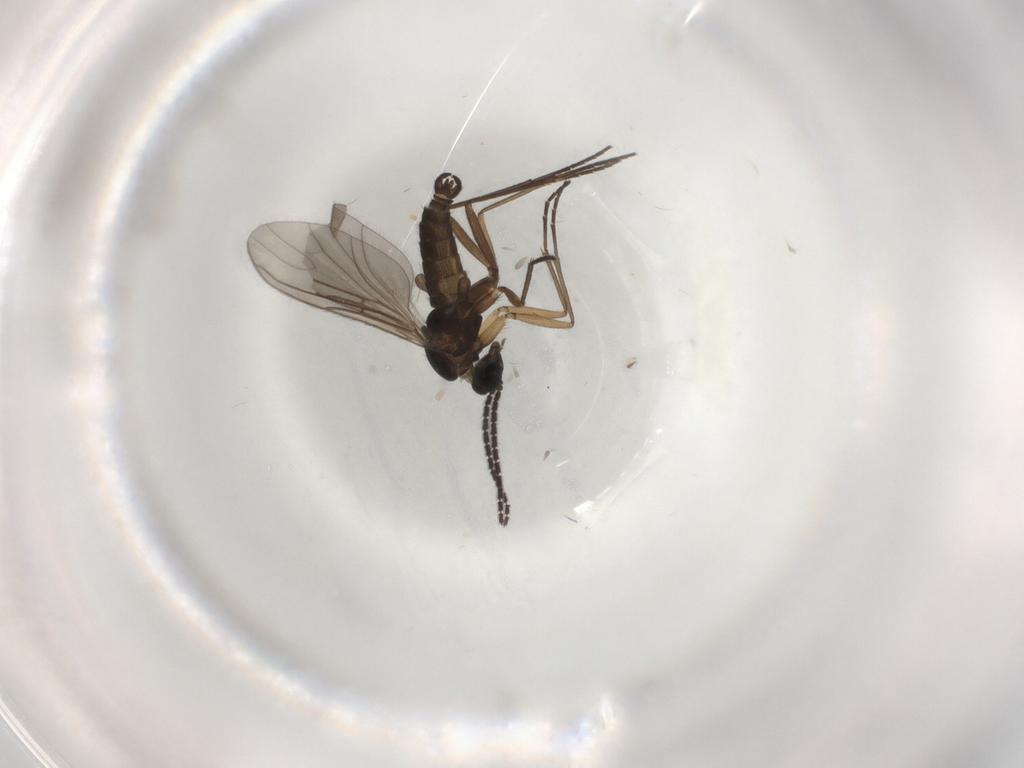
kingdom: Animalia
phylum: Arthropoda
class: Insecta
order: Diptera
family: Sciaridae
